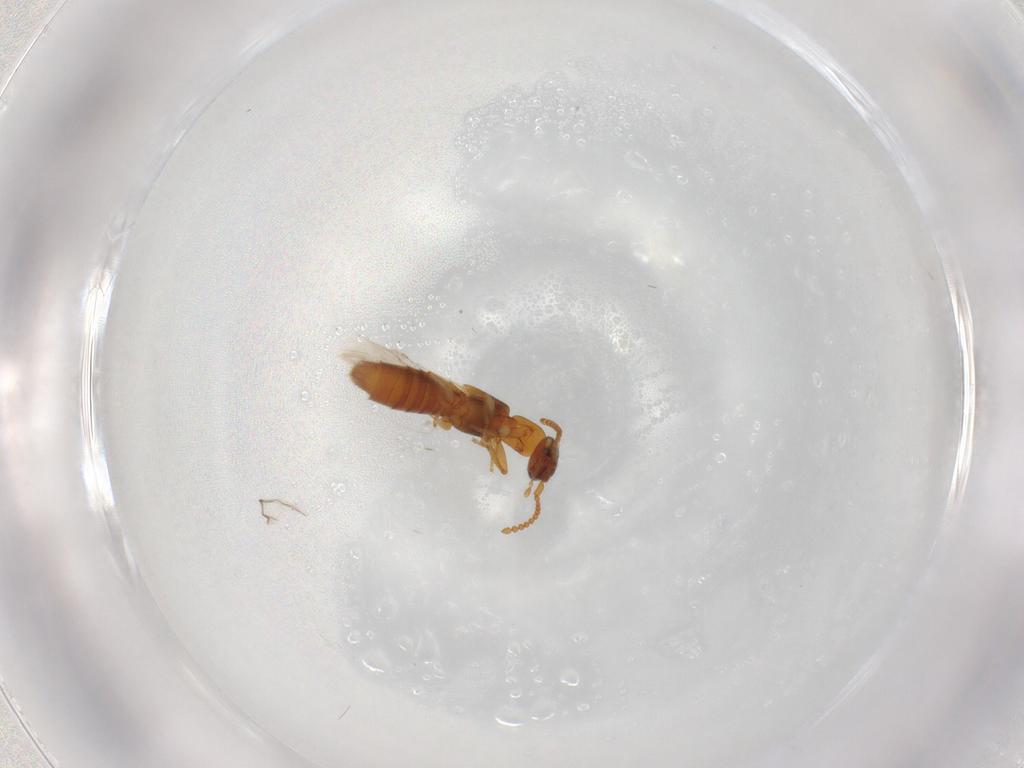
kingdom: Animalia
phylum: Arthropoda
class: Insecta
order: Coleoptera
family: Staphylinidae
